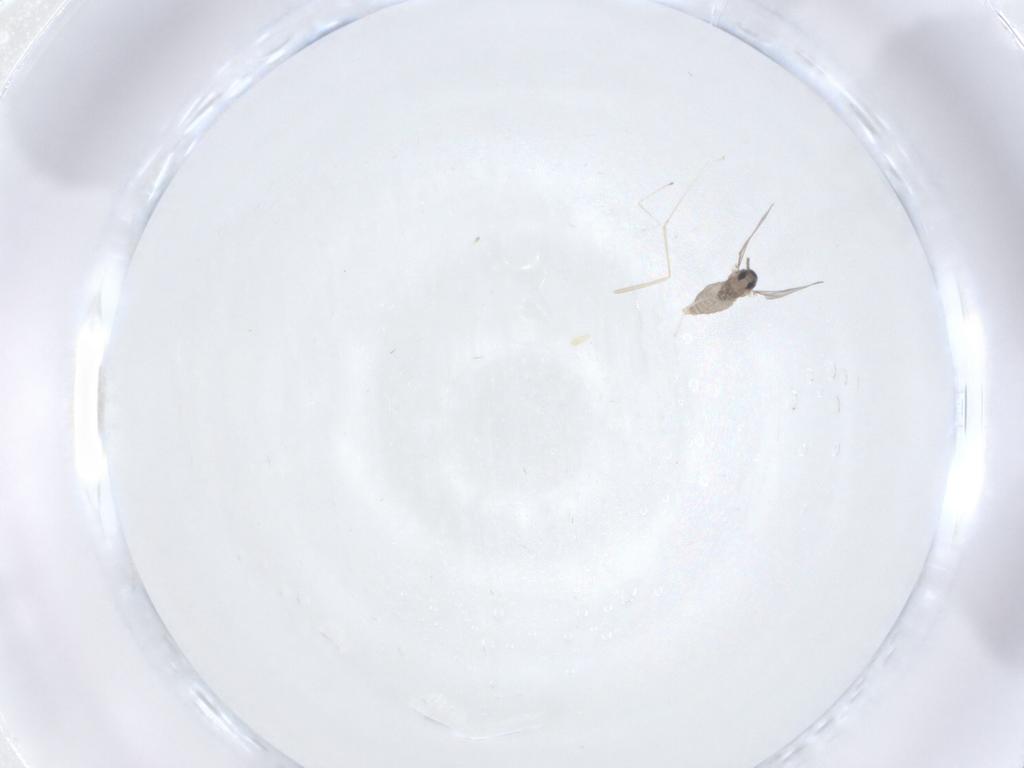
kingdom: Animalia
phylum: Arthropoda
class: Insecta
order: Diptera
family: Cecidomyiidae
